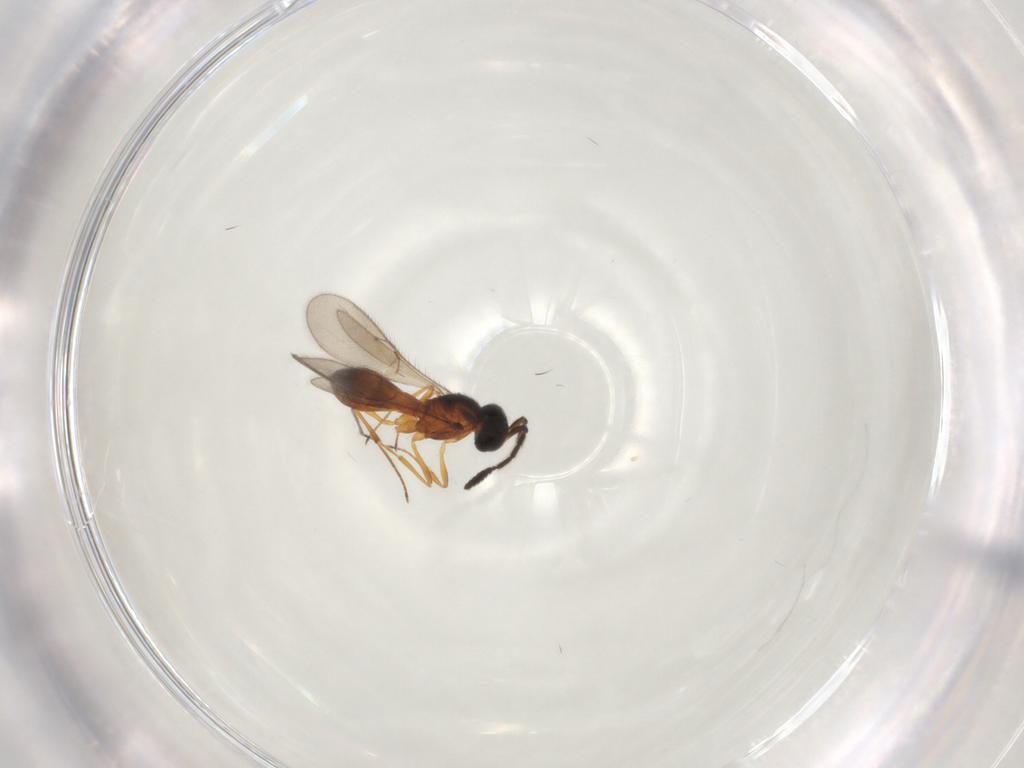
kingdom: Animalia
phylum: Arthropoda
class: Insecta
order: Hymenoptera
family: Scelionidae
